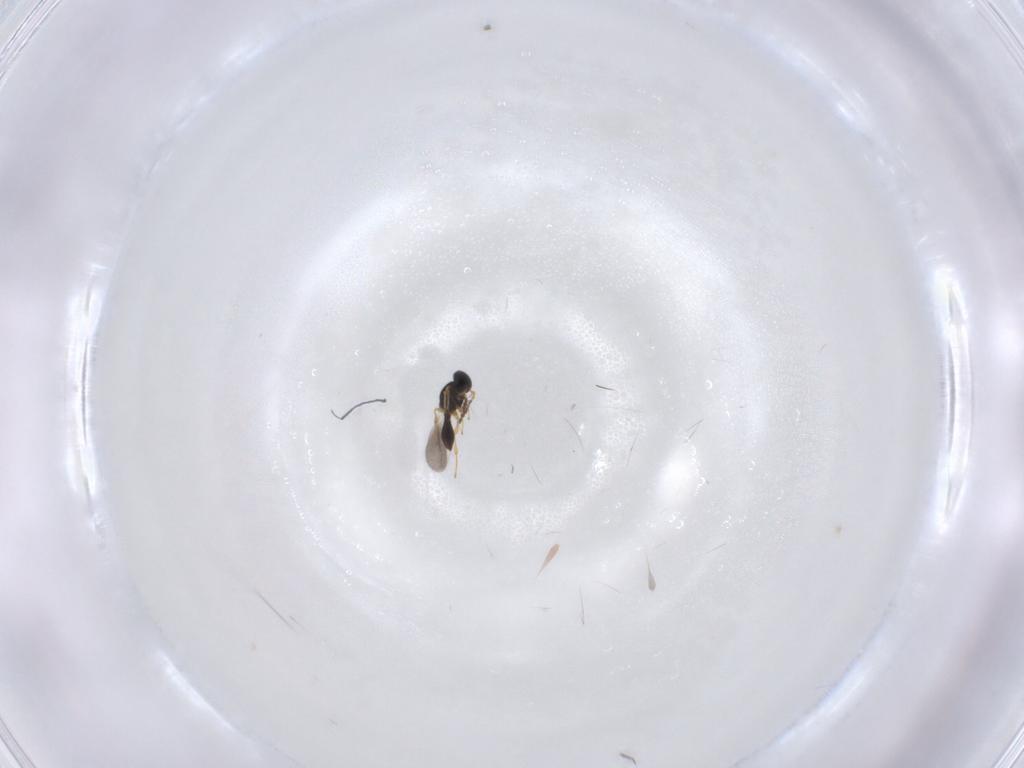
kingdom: Animalia
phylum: Arthropoda
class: Insecta
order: Hymenoptera
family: Platygastridae
